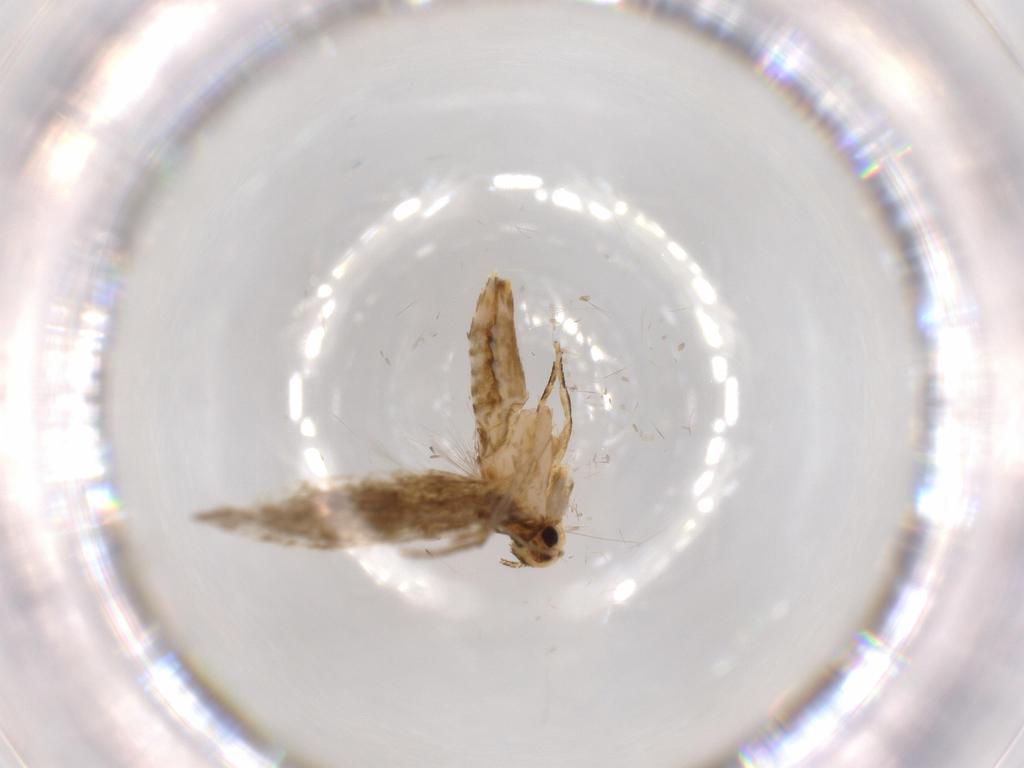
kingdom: Animalia
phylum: Arthropoda
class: Insecta
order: Lepidoptera
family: Tineidae
